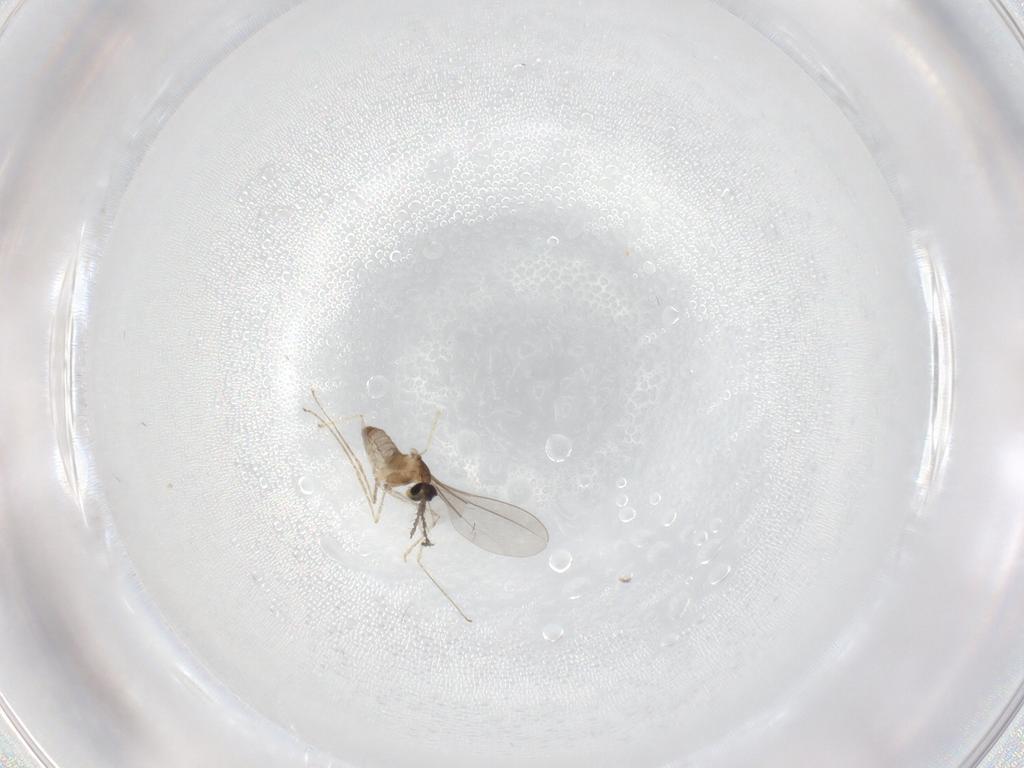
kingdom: Animalia
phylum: Arthropoda
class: Insecta
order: Diptera
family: Cecidomyiidae
